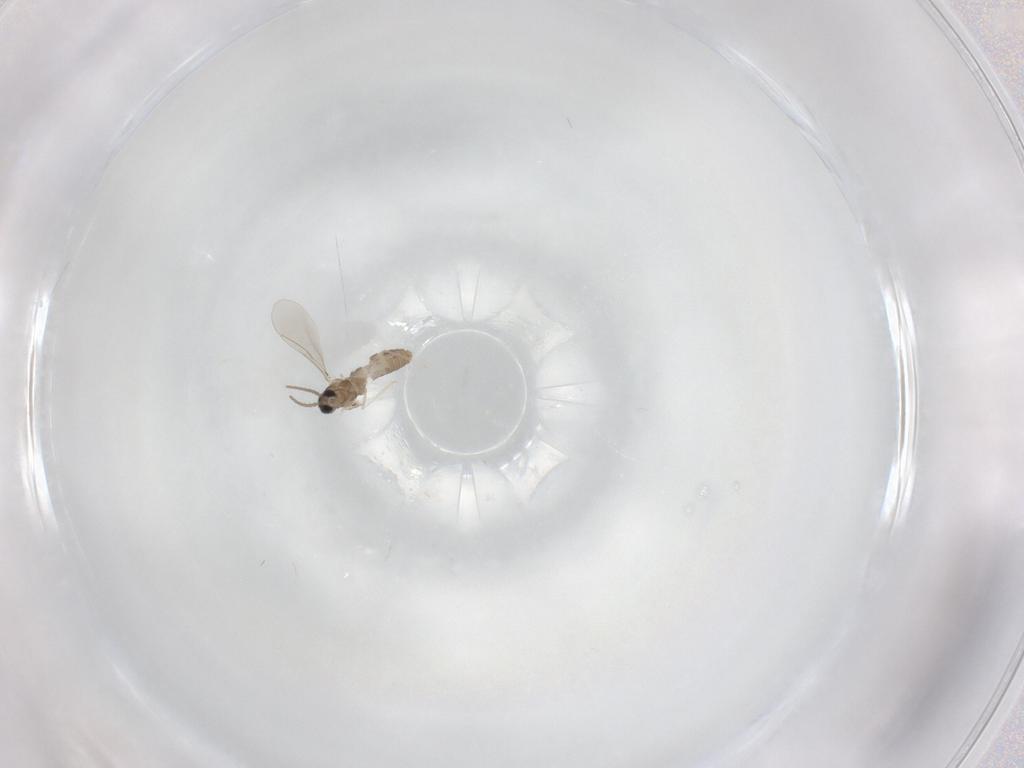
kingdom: Animalia
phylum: Arthropoda
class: Insecta
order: Diptera
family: Cecidomyiidae
